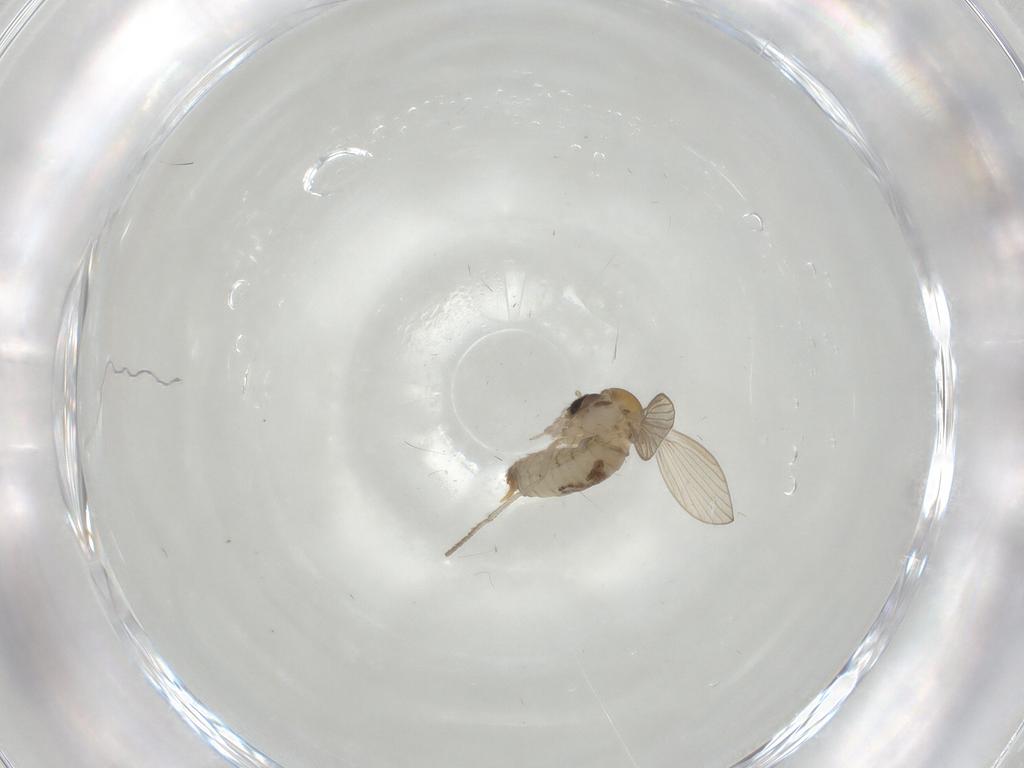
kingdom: Animalia
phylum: Arthropoda
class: Insecta
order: Diptera
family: Psychodidae
